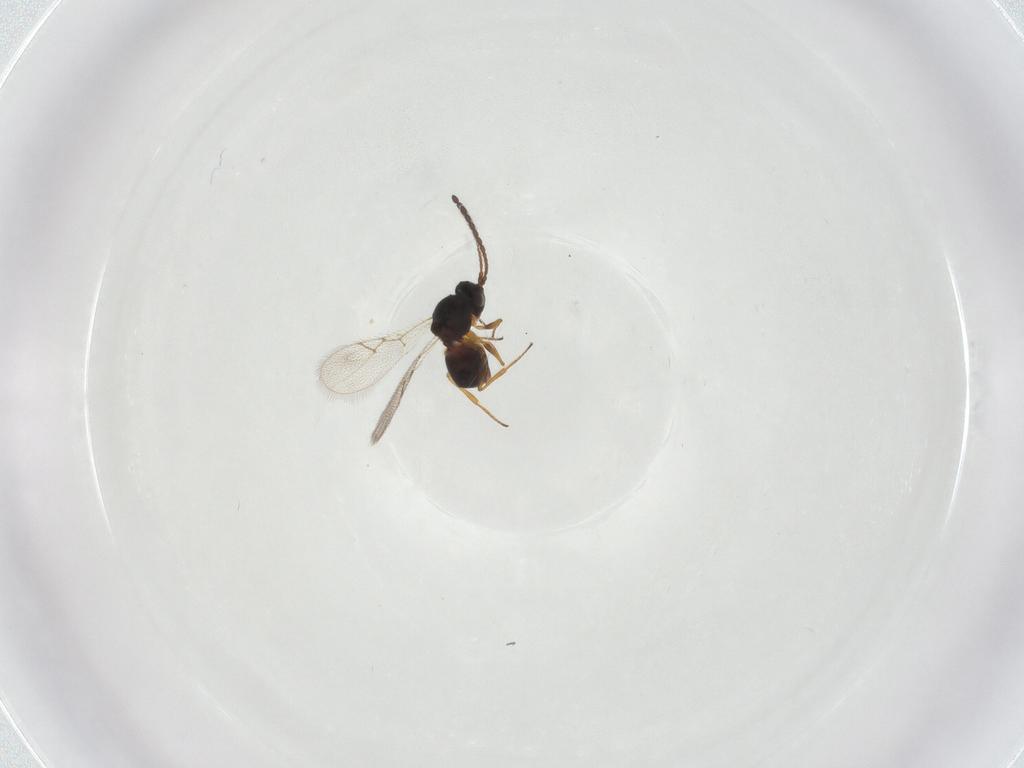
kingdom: Animalia
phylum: Arthropoda
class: Insecta
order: Hymenoptera
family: Figitidae
